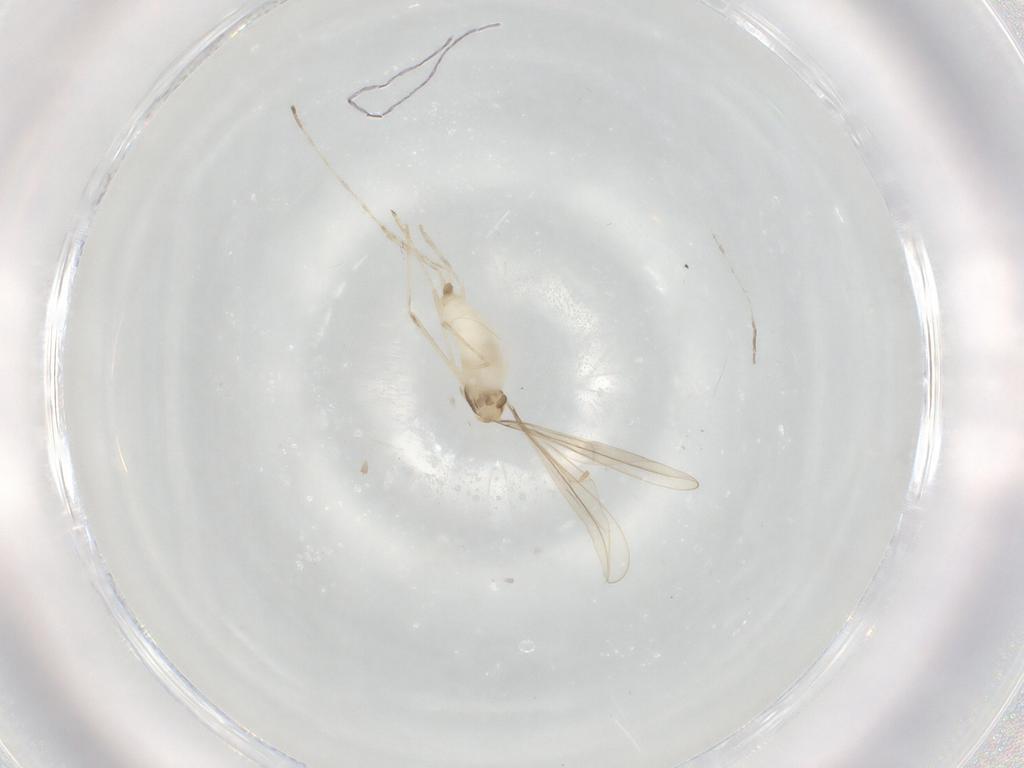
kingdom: Animalia
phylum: Arthropoda
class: Insecta
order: Diptera
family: Cecidomyiidae
